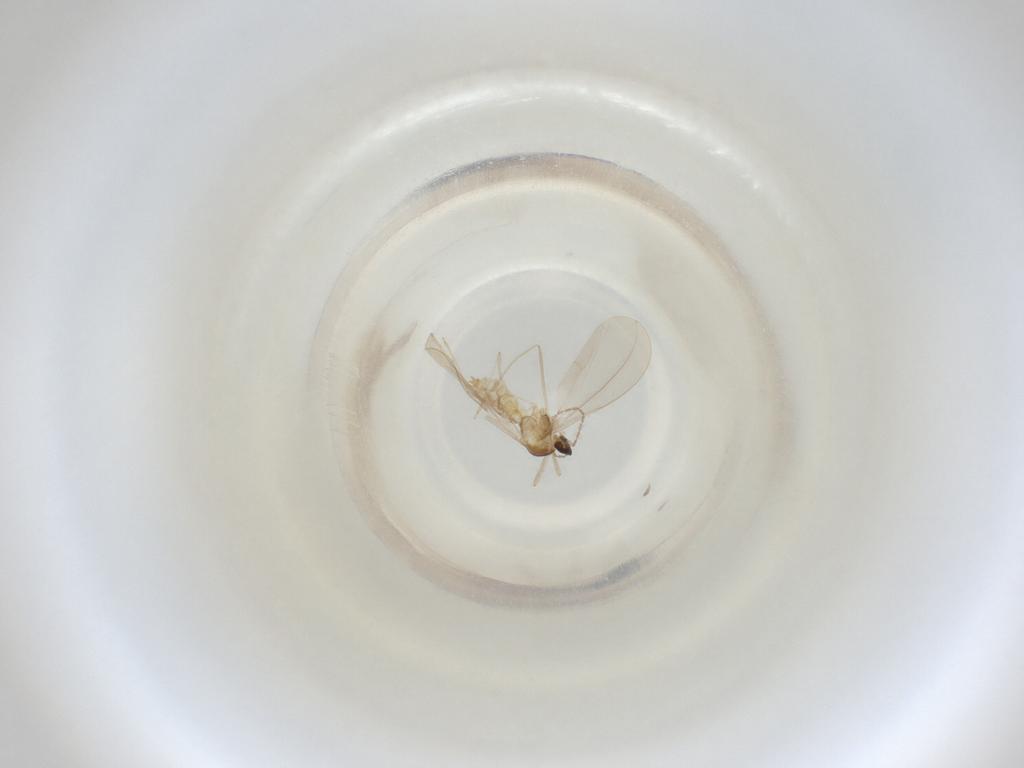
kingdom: Animalia
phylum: Arthropoda
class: Insecta
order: Diptera
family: Cecidomyiidae
